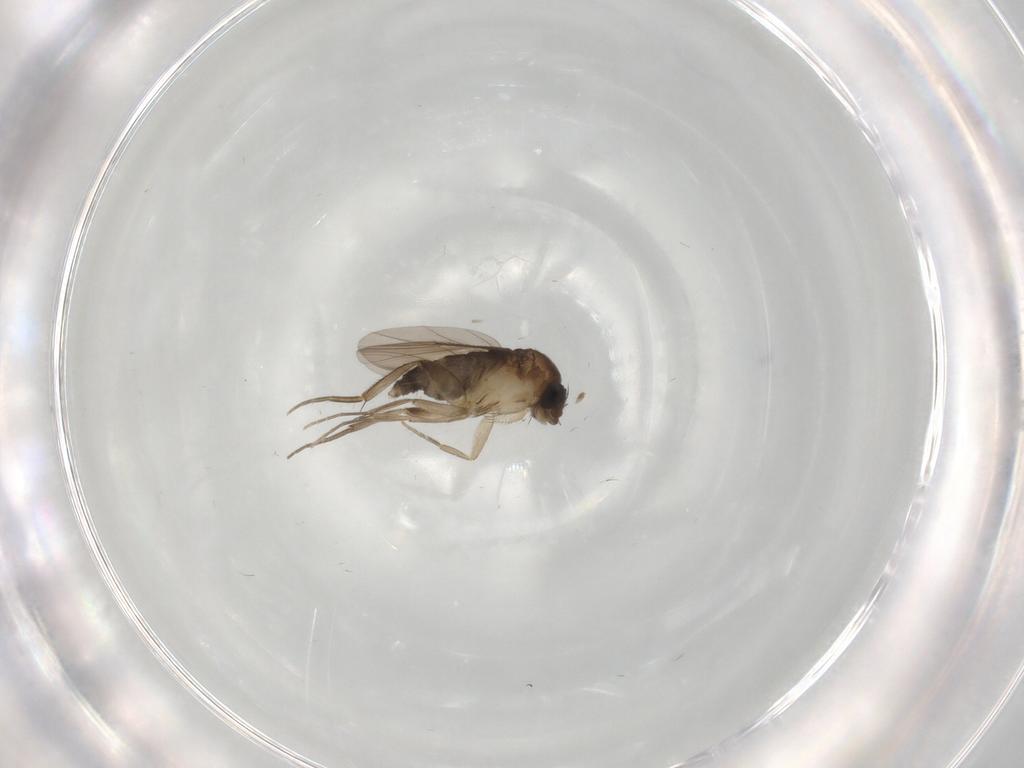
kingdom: Animalia
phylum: Arthropoda
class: Insecta
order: Diptera
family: Phoridae
